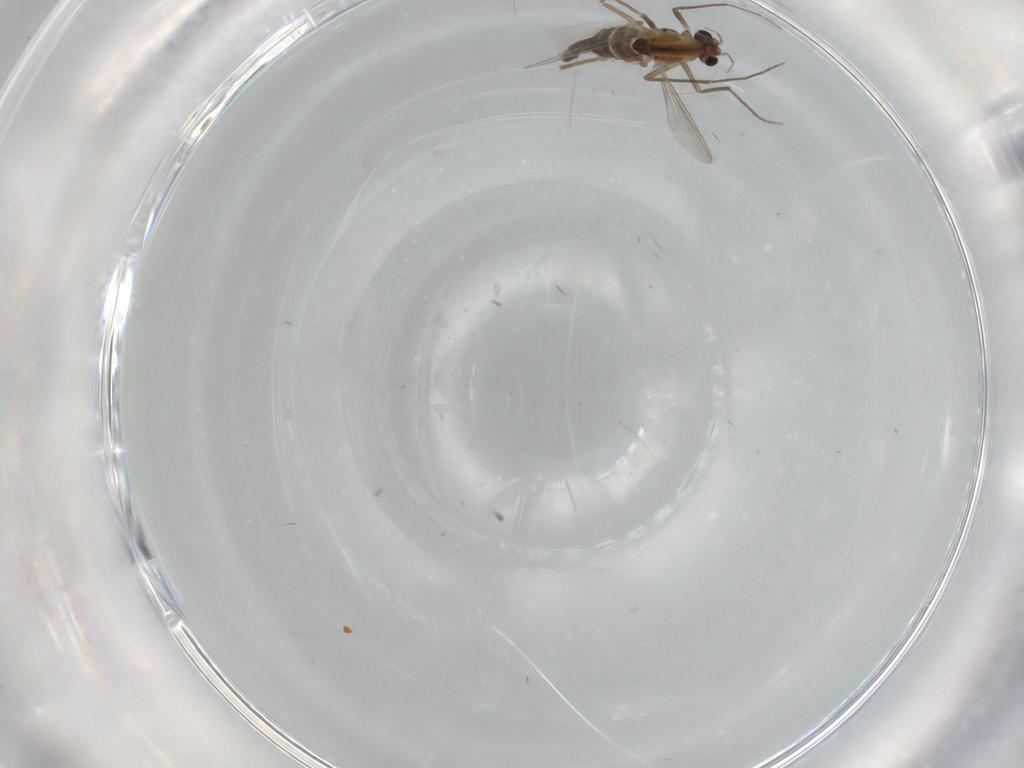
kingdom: Animalia
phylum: Arthropoda
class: Insecta
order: Diptera
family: Chironomidae
